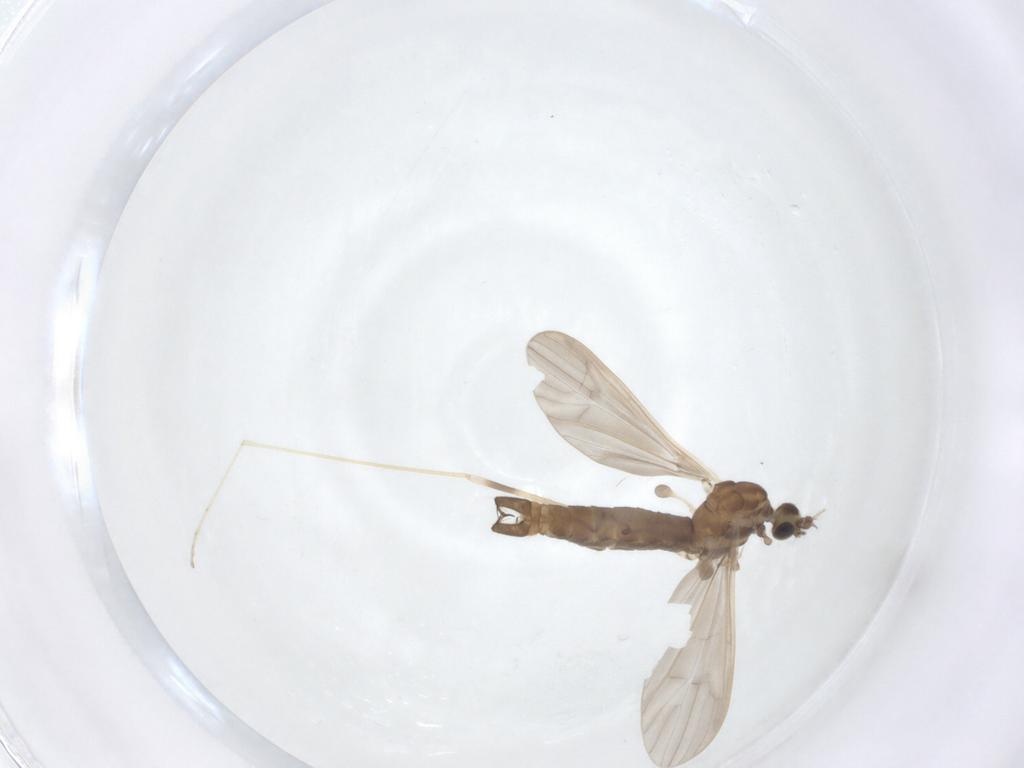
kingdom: Animalia
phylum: Arthropoda
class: Insecta
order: Diptera
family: Limoniidae
